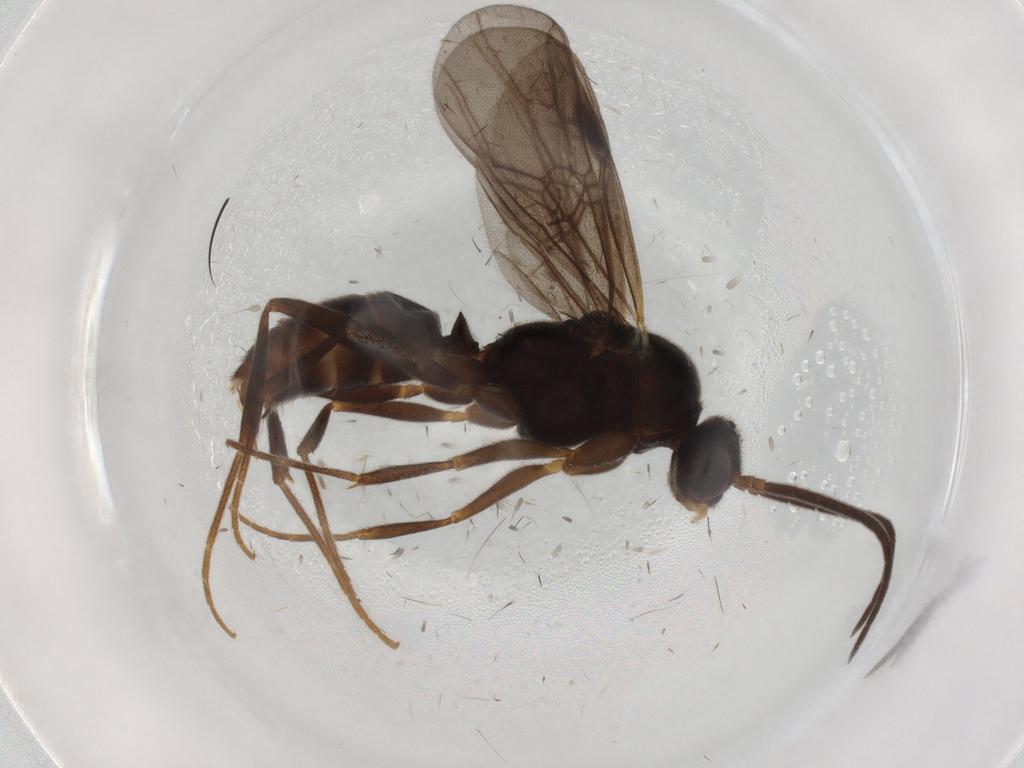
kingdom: Animalia
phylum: Arthropoda
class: Insecta
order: Hymenoptera
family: Formicidae
